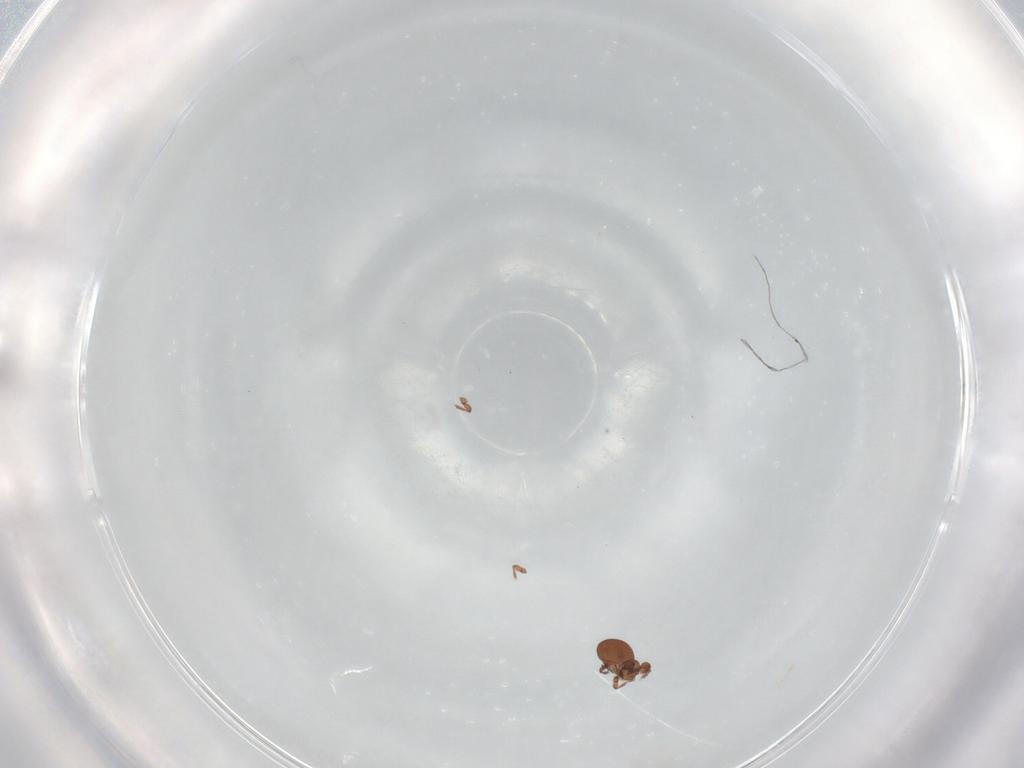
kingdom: Animalia
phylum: Arthropoda
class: Arachnida
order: Sarcoptiformes
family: Eremaeidae
